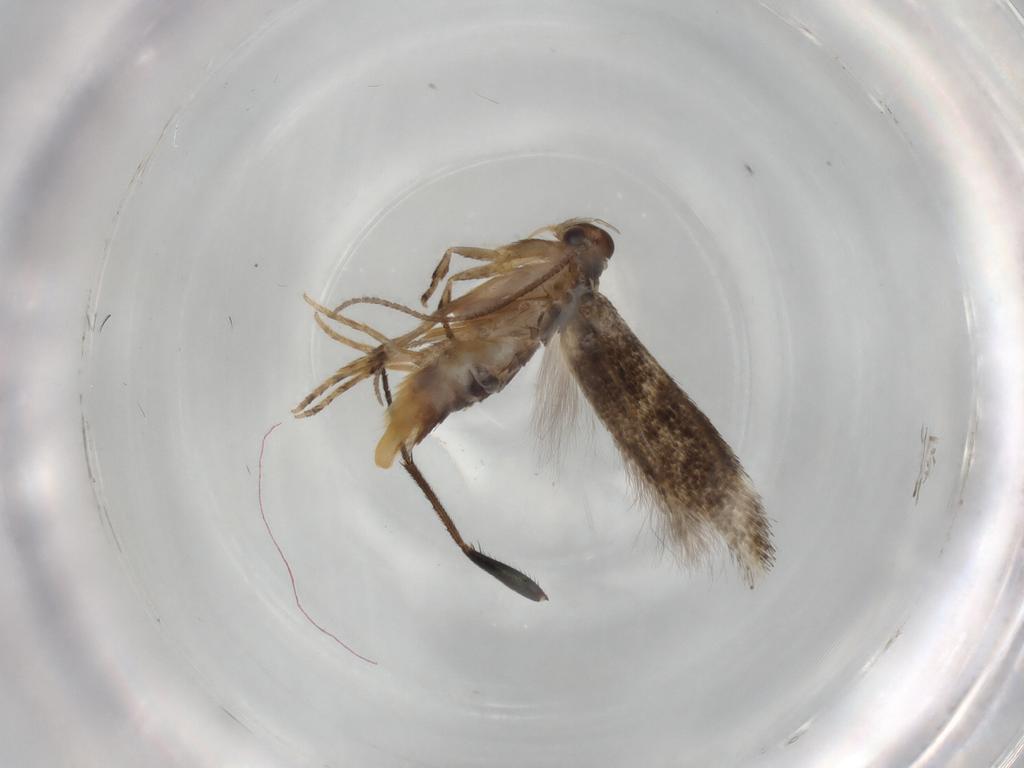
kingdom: Animalia
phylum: Arthropoda
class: Insecta
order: Lepidoptera
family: Elachistidae
